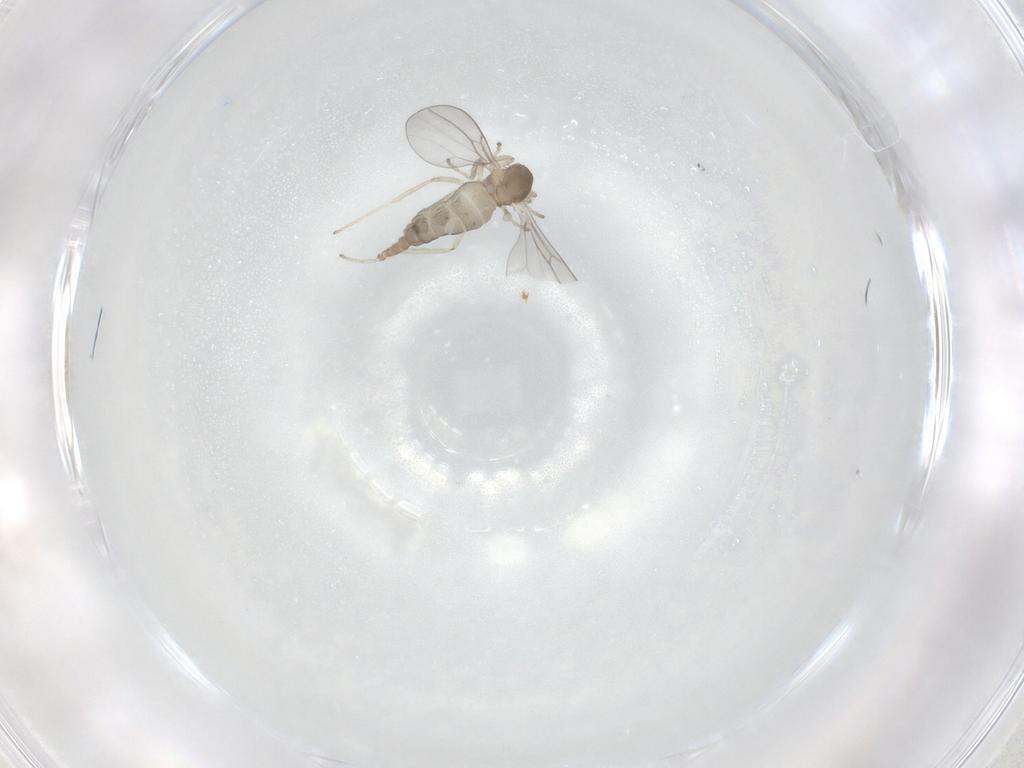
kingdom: Animalia
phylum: Arthropoda
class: Insecta
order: Diptera
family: Cecidomyiidae
